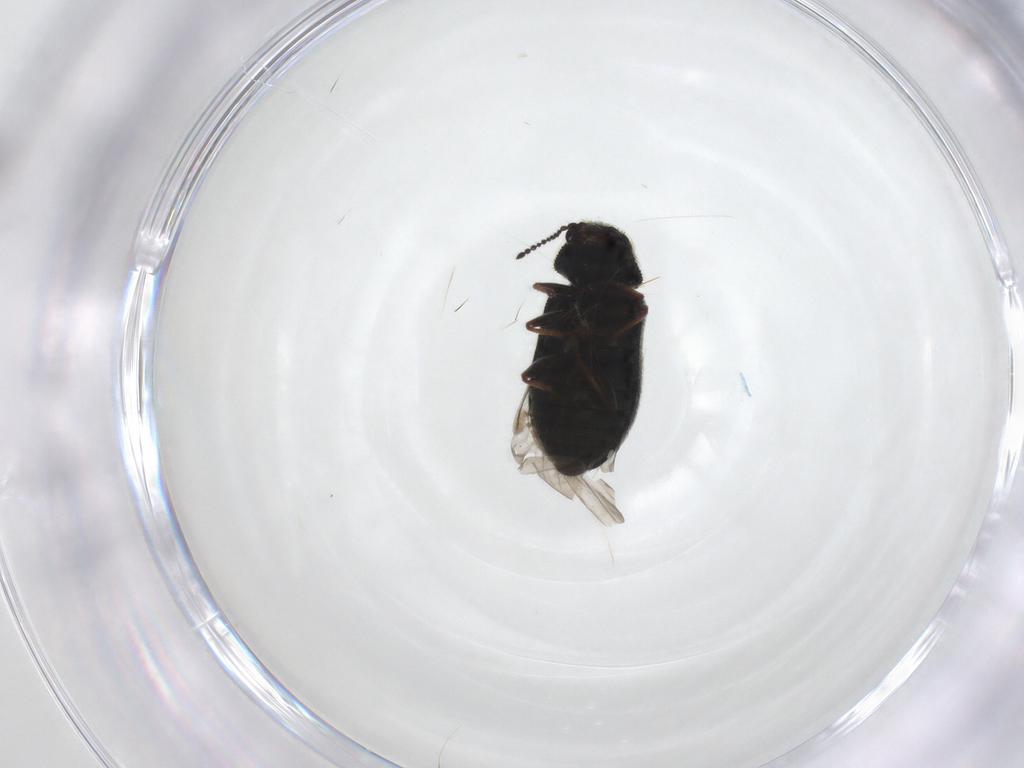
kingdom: Animalia
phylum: Arthropoda
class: Insecta
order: Coleoptera
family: Melyridae
